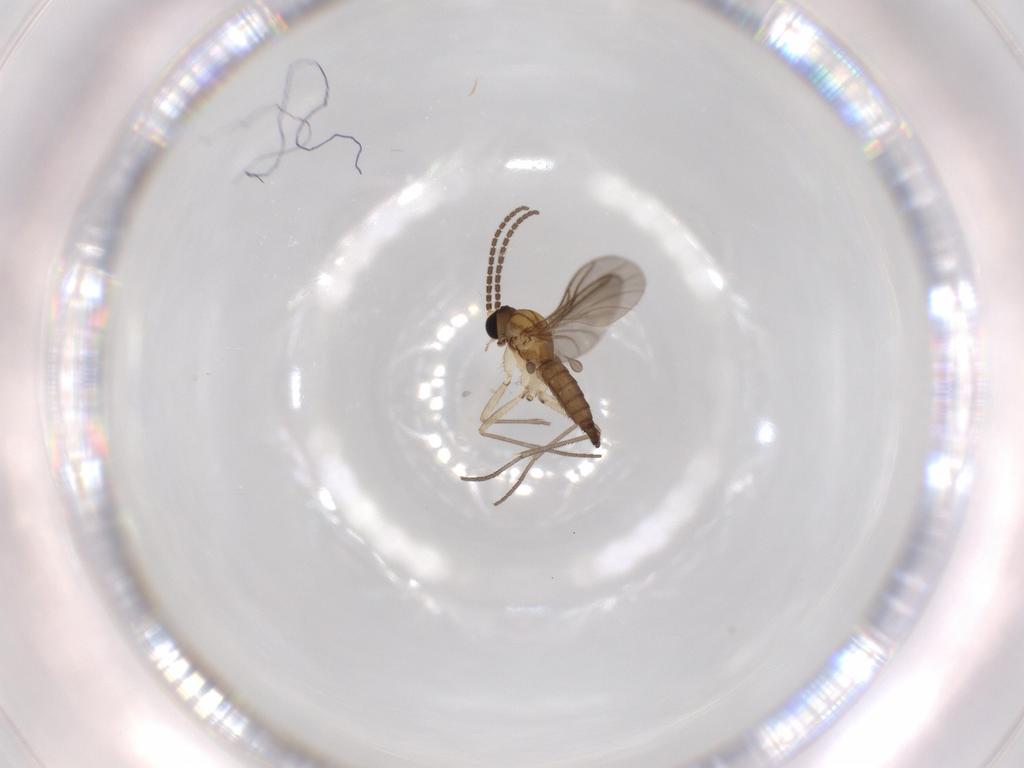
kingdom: Animalia
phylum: Arthropoda
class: Insecta
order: Diptera
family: Sciaridae
